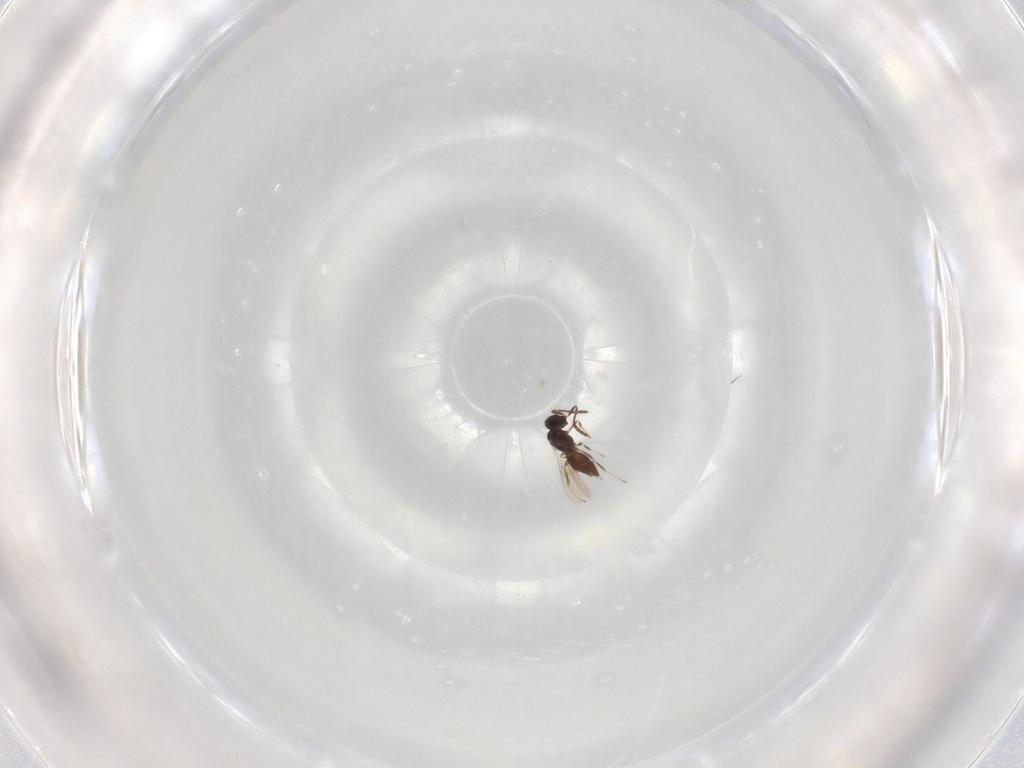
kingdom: Animalia
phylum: Arthropoda
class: Insecta
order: Hymenoptera
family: Scelionidae
